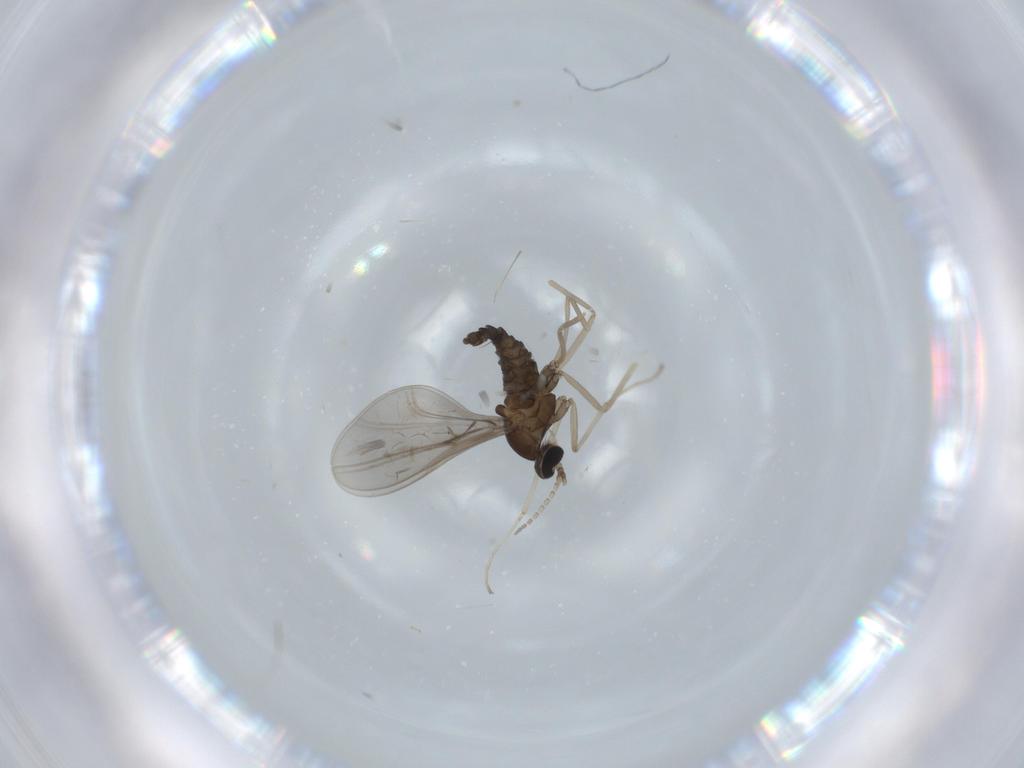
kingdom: Animalia
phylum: Arthropoda
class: Insecta
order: Diptera
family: Cecidomyiidae
